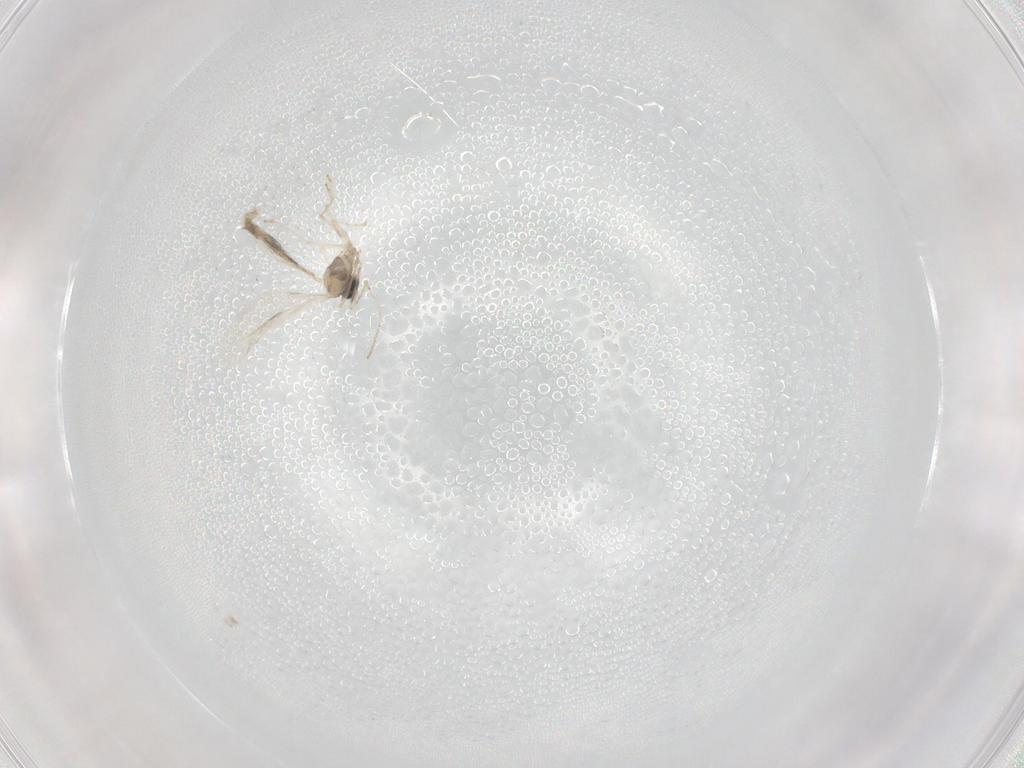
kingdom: Animalia
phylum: Arthropoda
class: Insecta
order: Diptera
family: Cecidomyiidae
